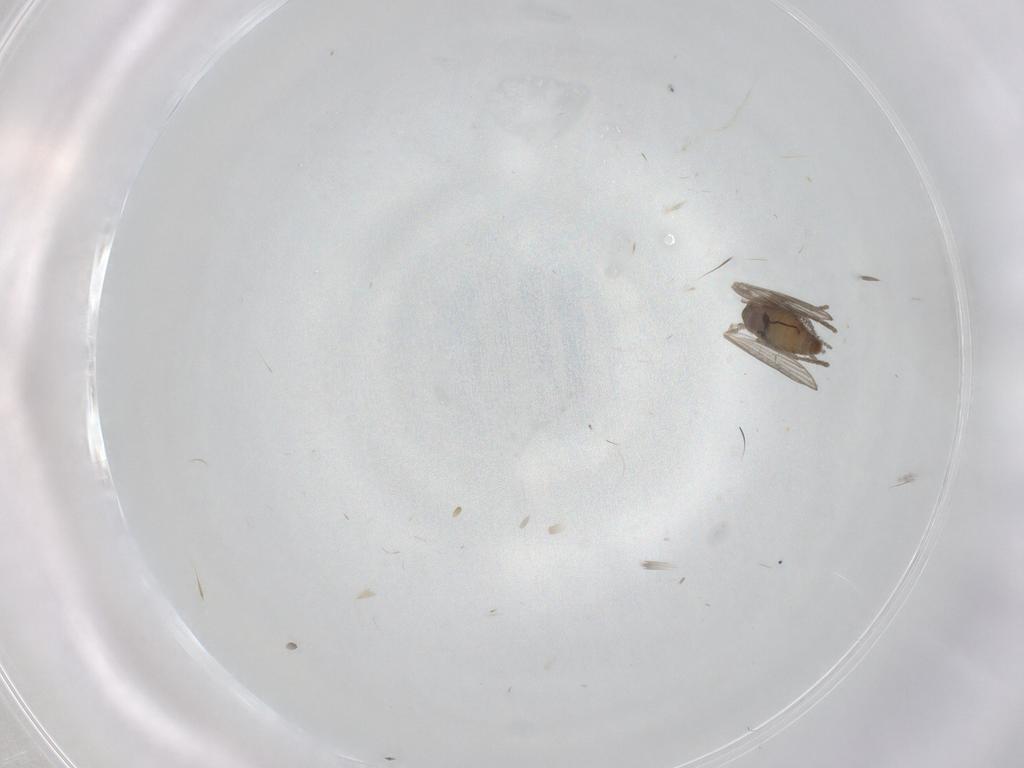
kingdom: Animalia
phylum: Arthropoda
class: Insecta
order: Diptera
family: Psychodidae
